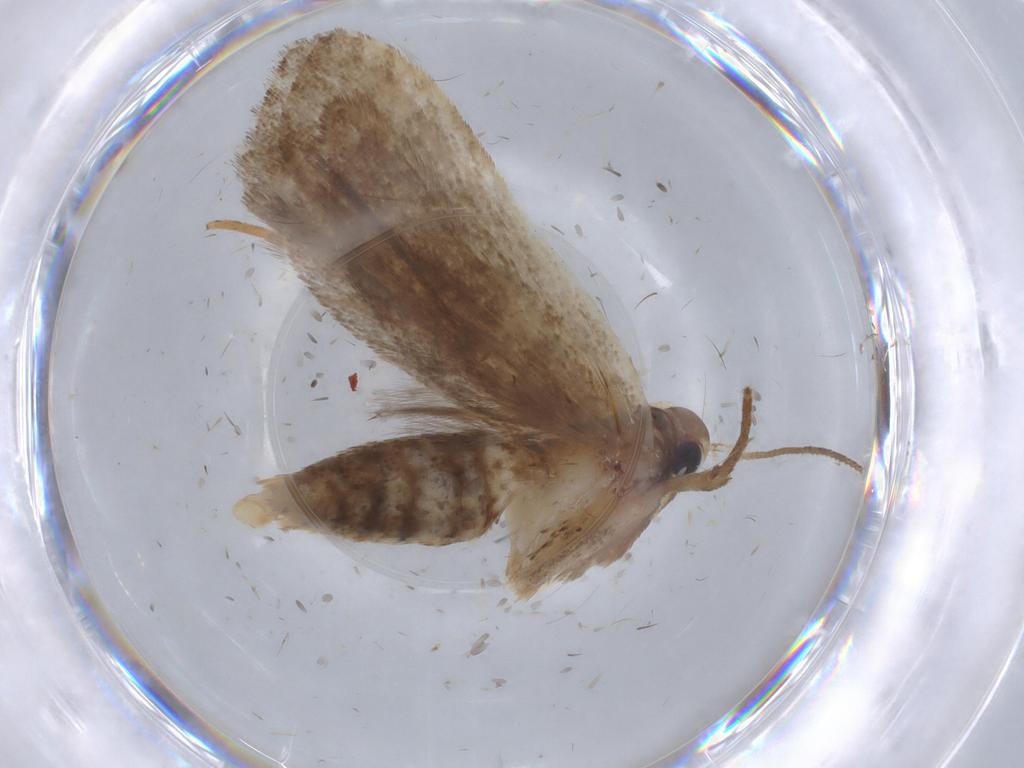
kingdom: Animalia
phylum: Arthropoda
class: Insecta
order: Lepidoptera
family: Gelechiidae
